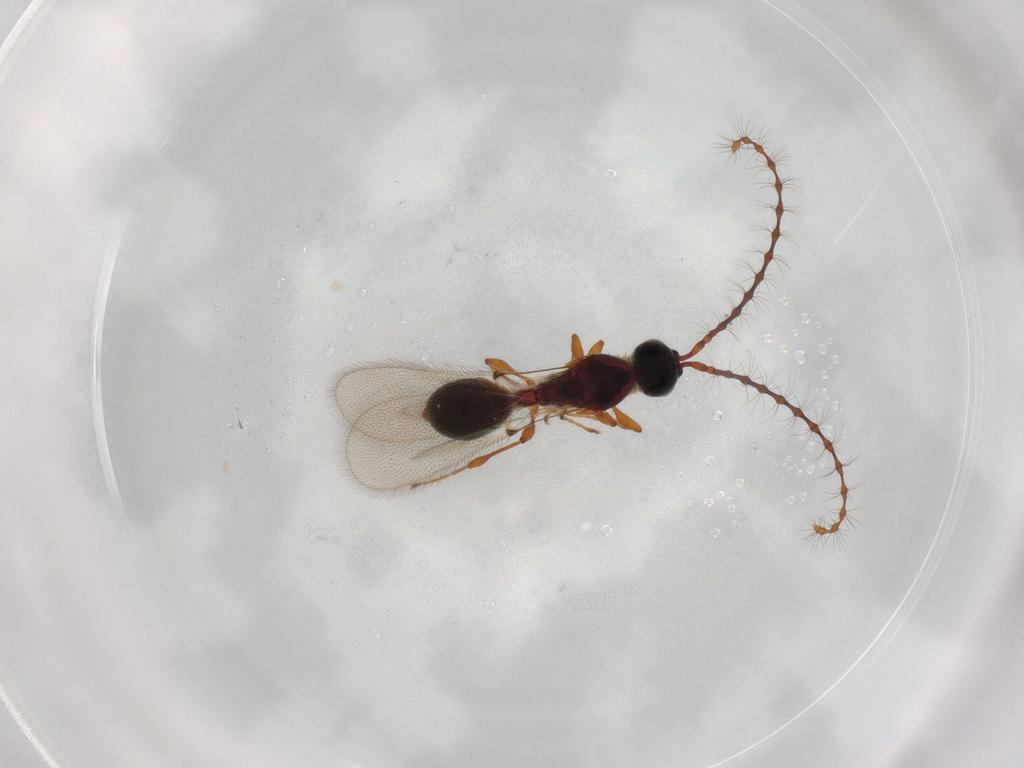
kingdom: Animalia
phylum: Arthropoda
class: Insecta
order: Hymenoptera
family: Diapriidae
